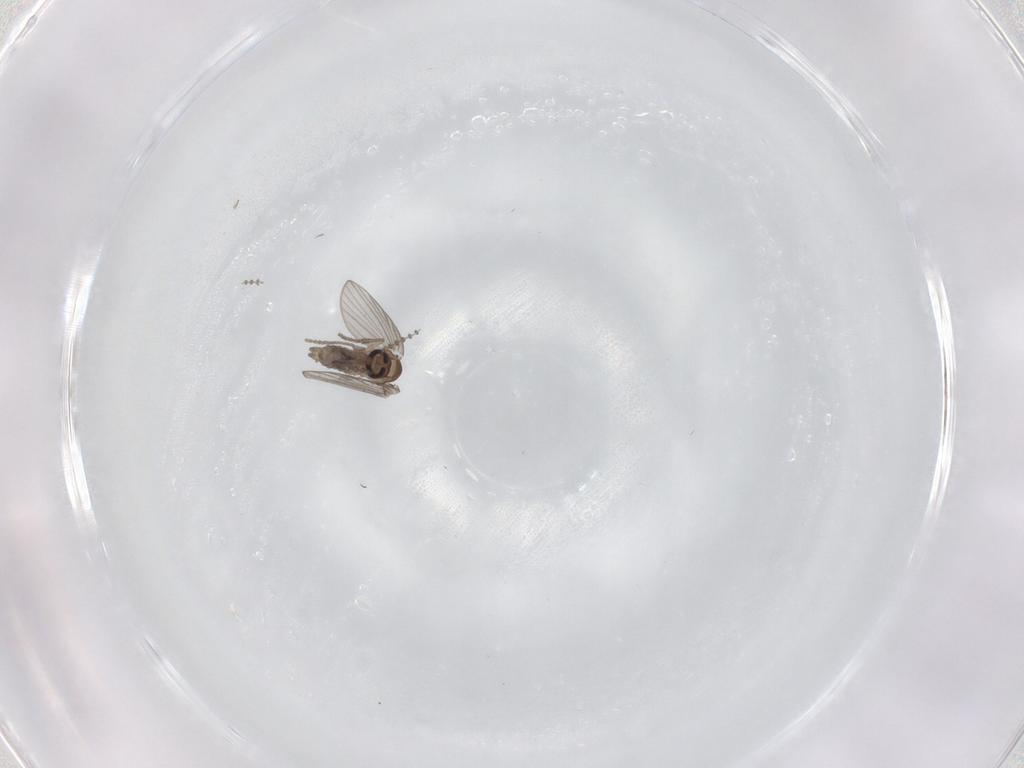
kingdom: Animalia
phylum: Arthropoda
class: Insecta
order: Diptera
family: Psychodidae
